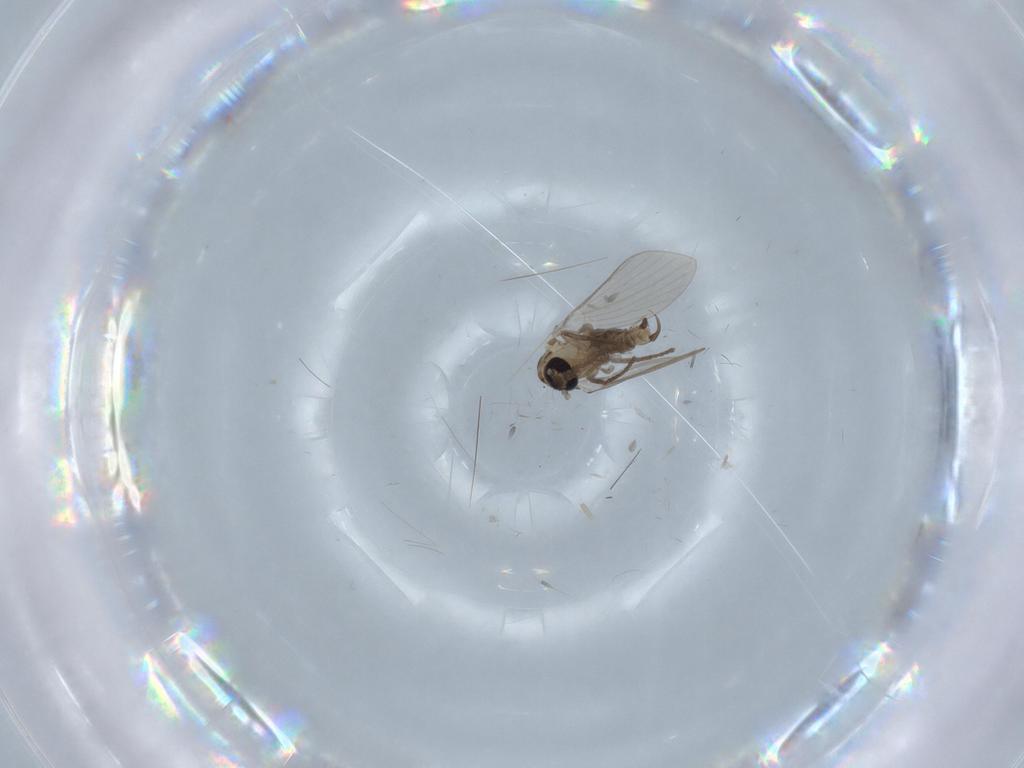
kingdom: Animalia
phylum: Arthropoda
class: Insecta
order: Diptera
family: Drosophilidae
